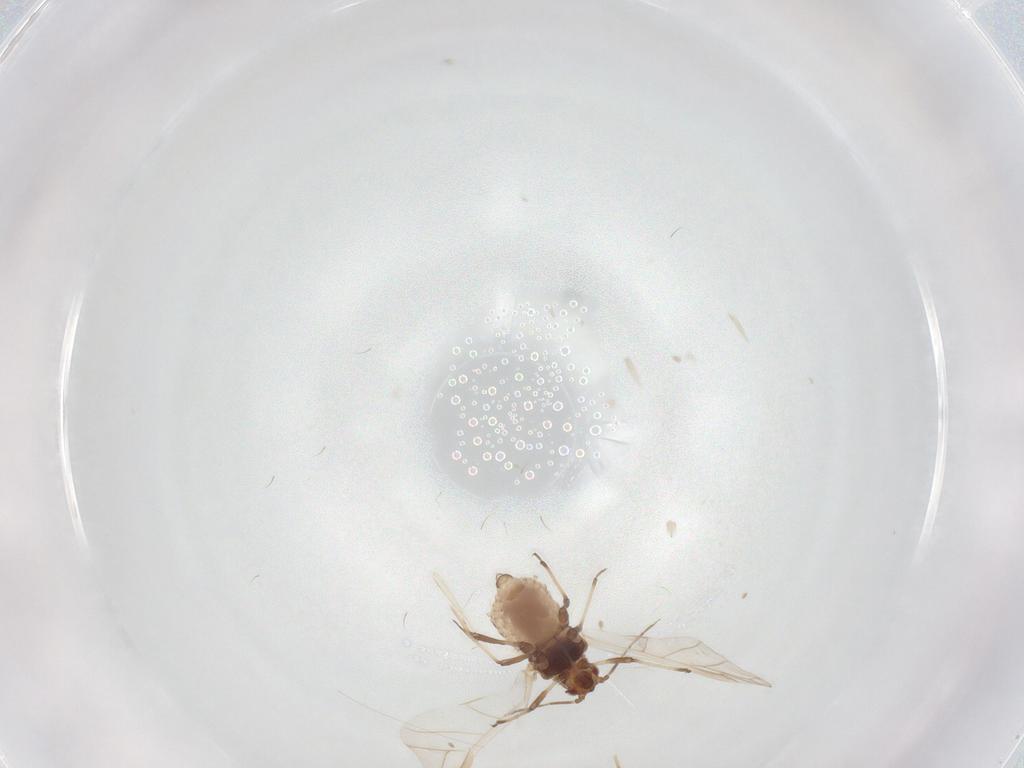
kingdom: Animalia
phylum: Arthropoda
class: Insecta
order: Hemiptera
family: Aphididae
